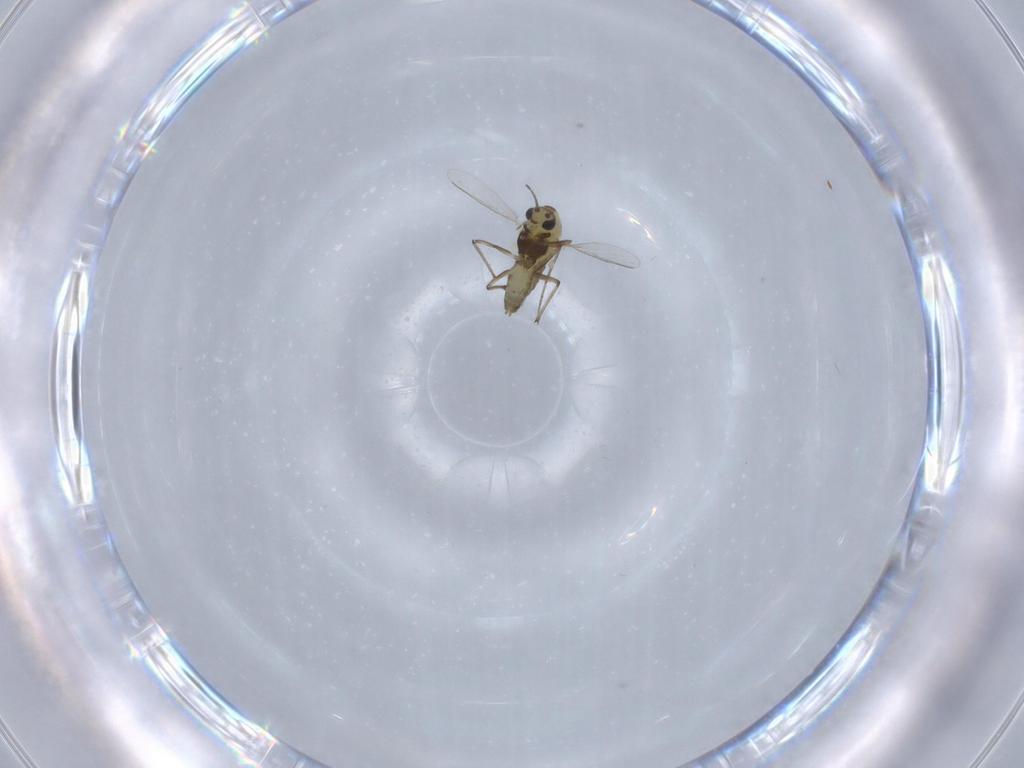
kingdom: Animalia
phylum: Arthropoda
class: Insecta
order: Diptera
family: Chironomidae
